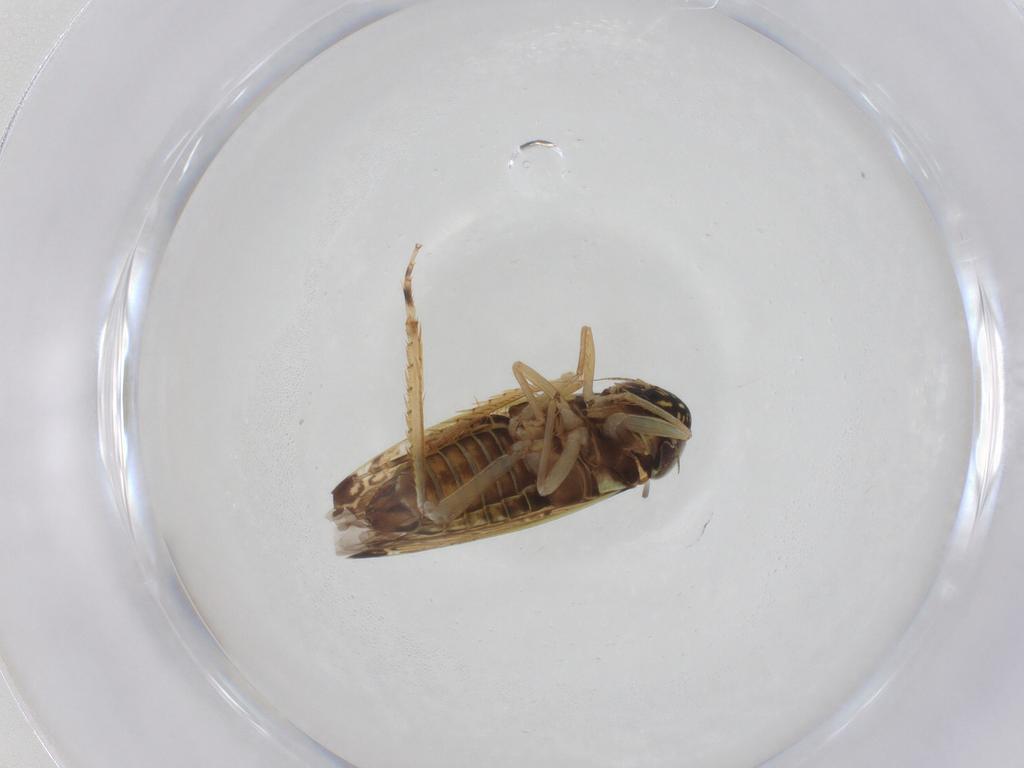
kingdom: Animalia
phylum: Arthropoda
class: Insecta
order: Hemiptera
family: Cicadellidae
